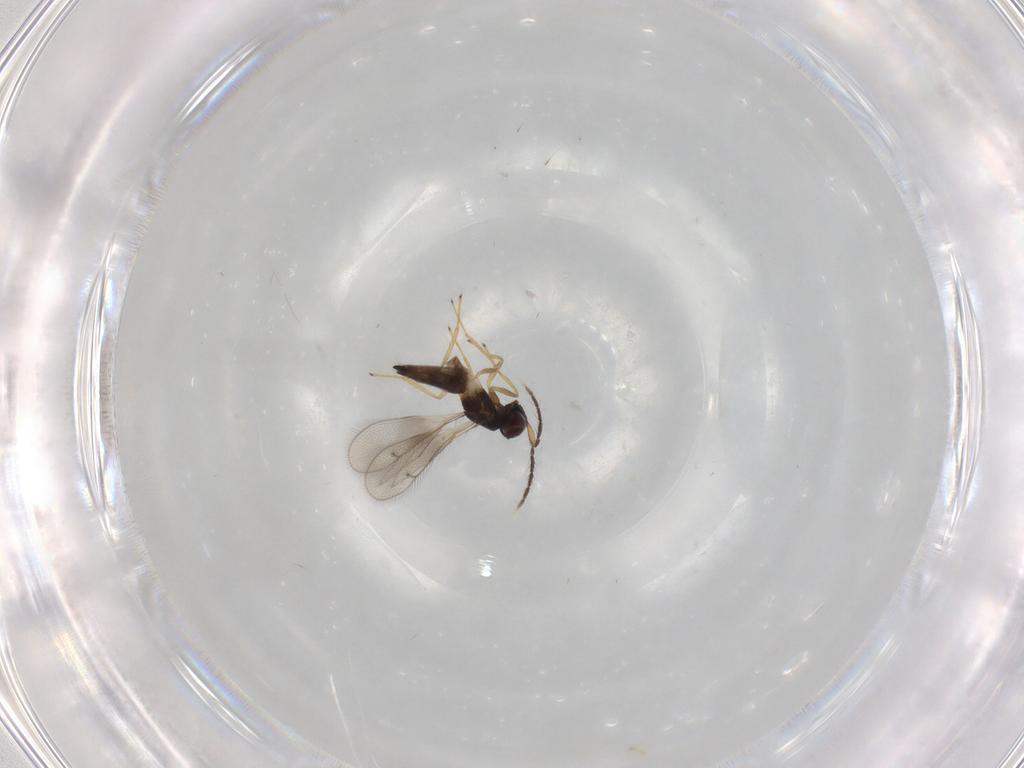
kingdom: Animalia
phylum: Arthropoda
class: Insecta
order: Hymenoptera
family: Eulophidae
